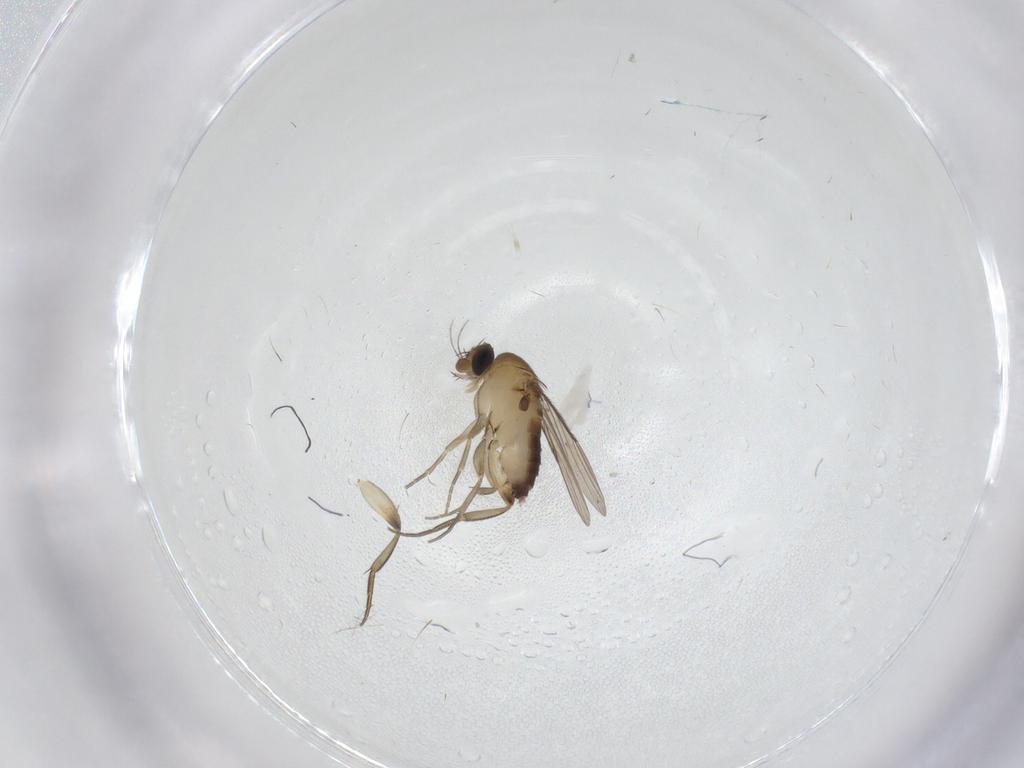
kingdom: Animalia
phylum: Arthropoda
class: Insecta
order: Diptera
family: Phoridae
